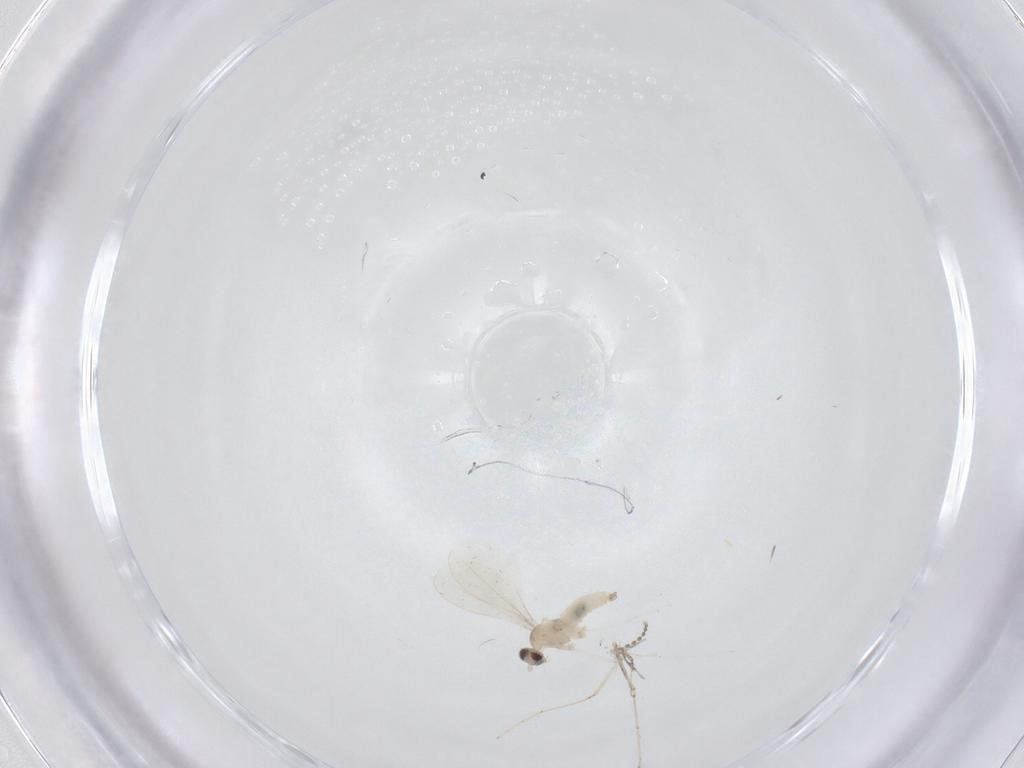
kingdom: Animalia
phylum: Arthropoda
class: Insecta
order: Diptera
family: Cecidomyiidae
